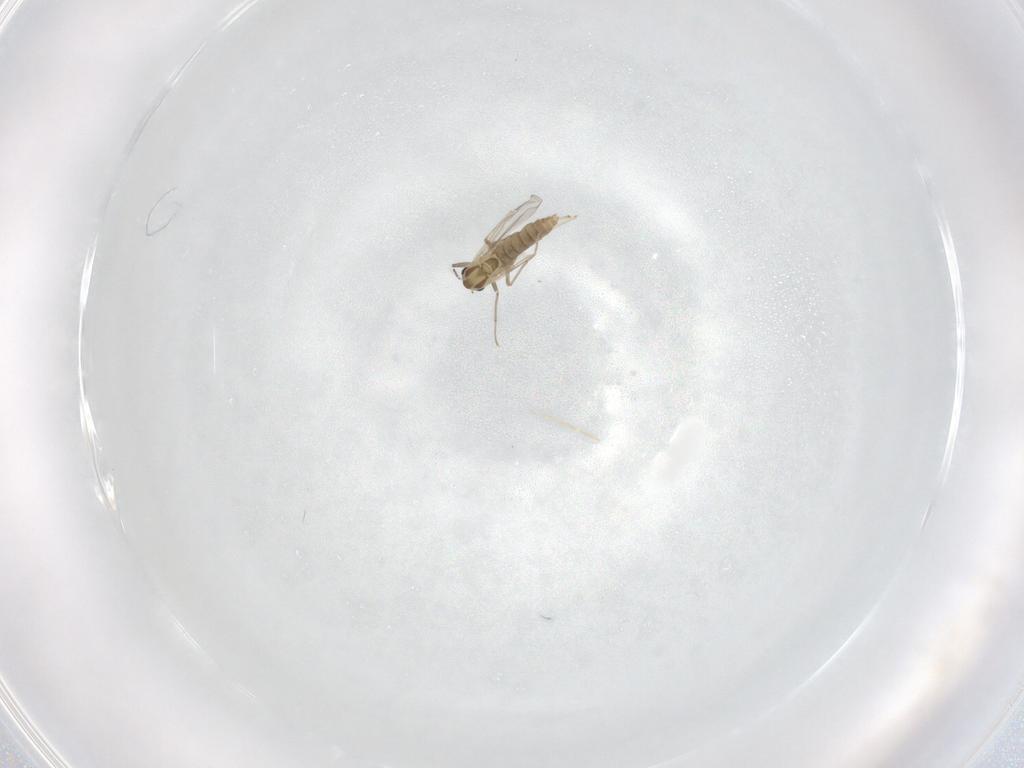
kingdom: Animalia
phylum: Arthropoda
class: Insecta
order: Diptera
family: Chironomidae
